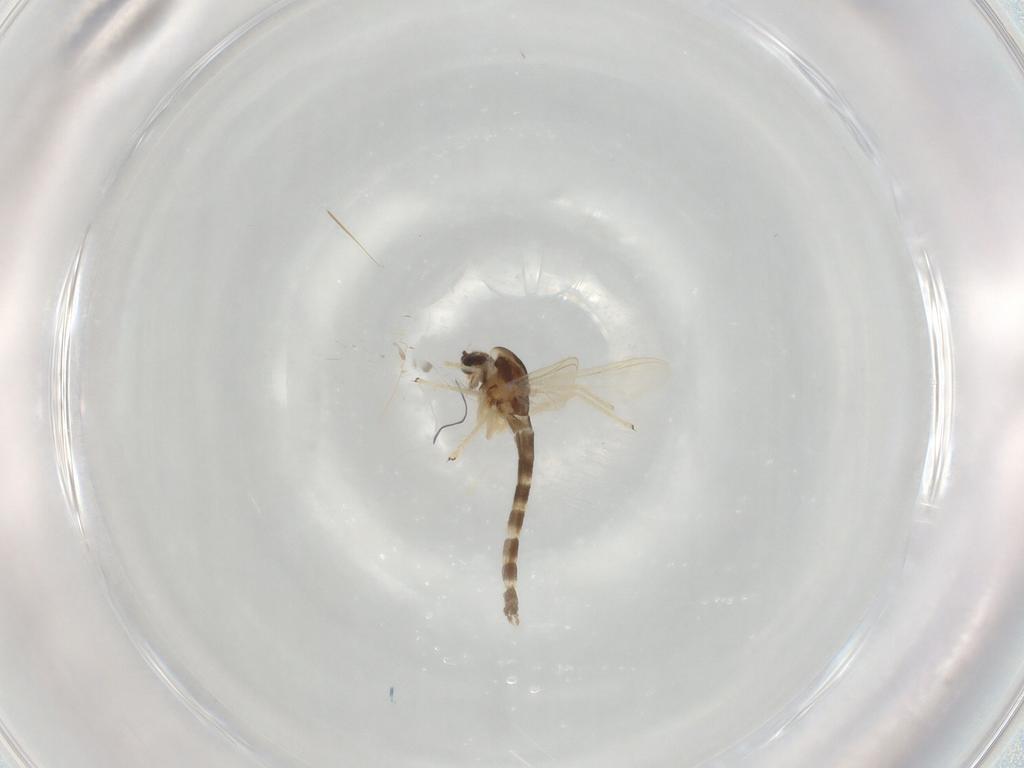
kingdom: Animalia
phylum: Arthropoda
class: Insecta
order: Diptera
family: Chironomidae
